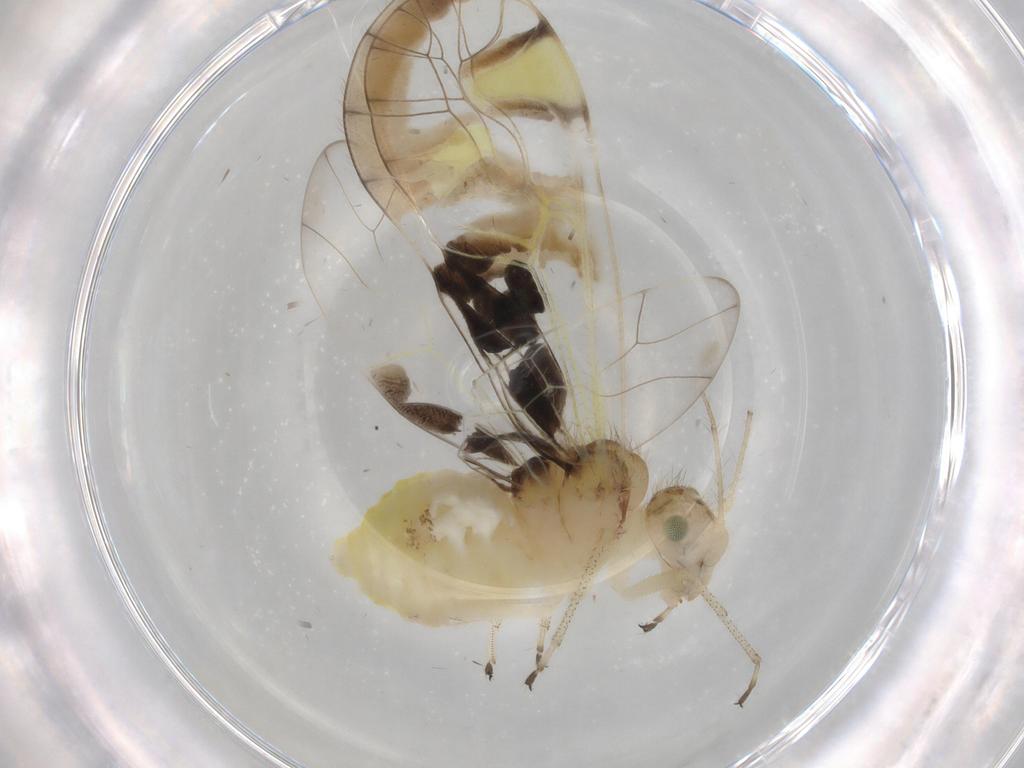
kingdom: Animalia
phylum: Arthropoda
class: Insecta
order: Psocodea
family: Amphipsocidae
